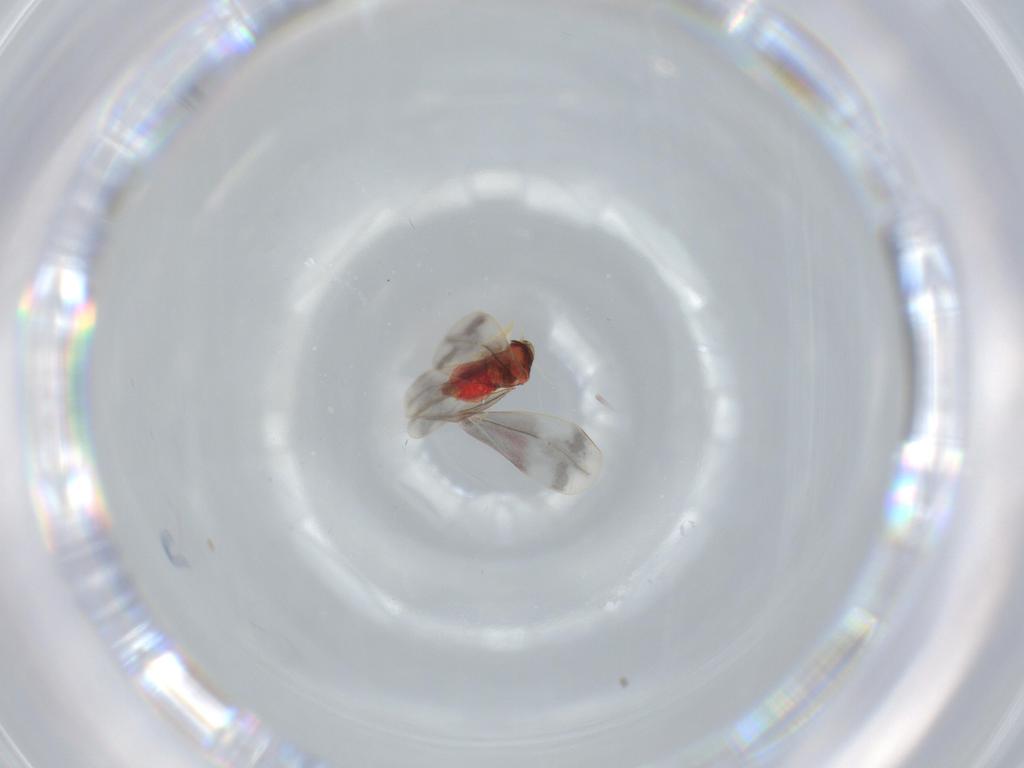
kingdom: Animalia
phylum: Arthropoda
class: Insecta
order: Hemiptera
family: Aleyrodidae
